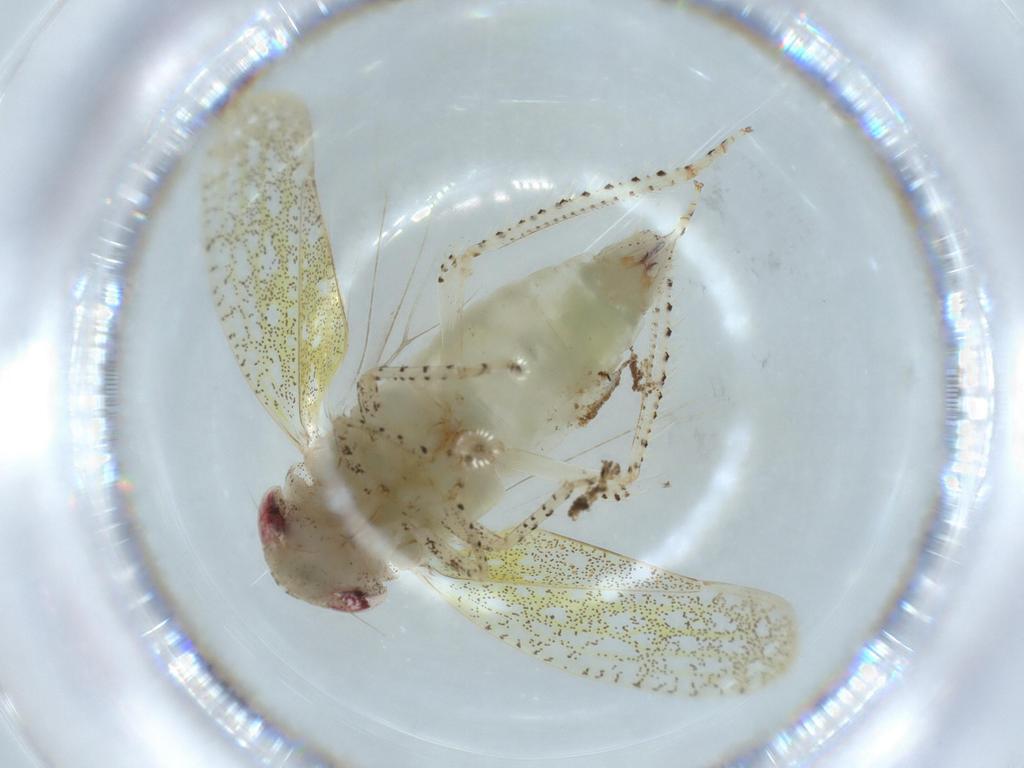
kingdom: Animalia
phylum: Arthropoda
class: Insecta
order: Hemiptera
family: Cicadellidae
